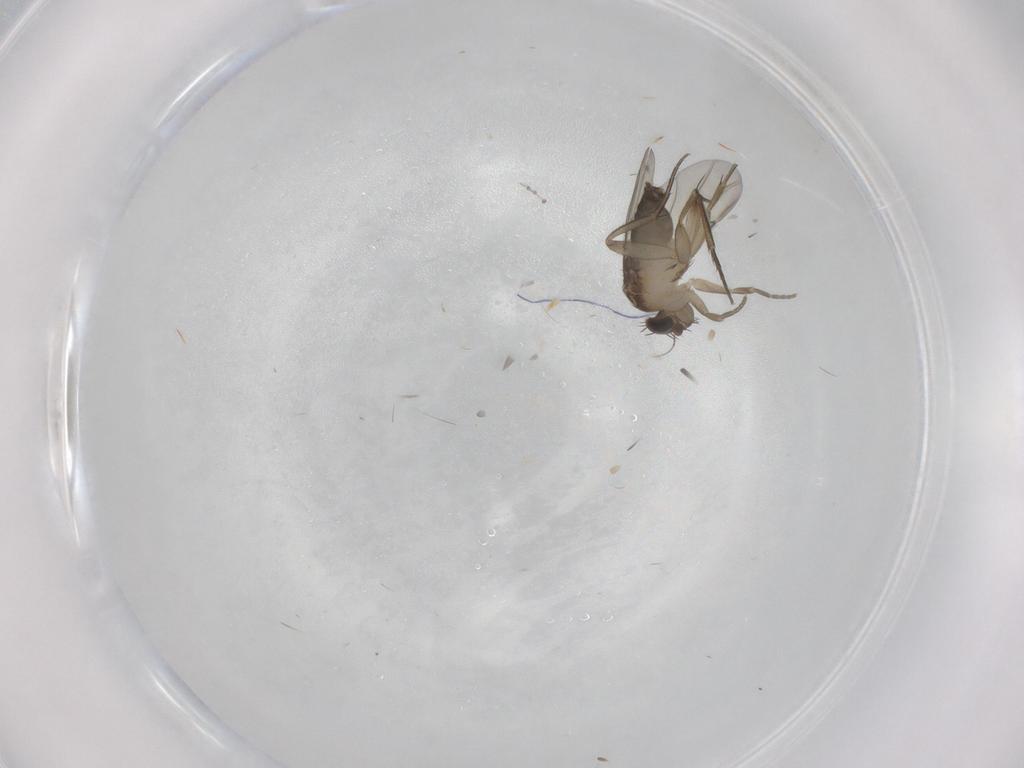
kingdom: Animalia
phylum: Arthropoda
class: Insecta
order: Diptera
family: Phoridae
